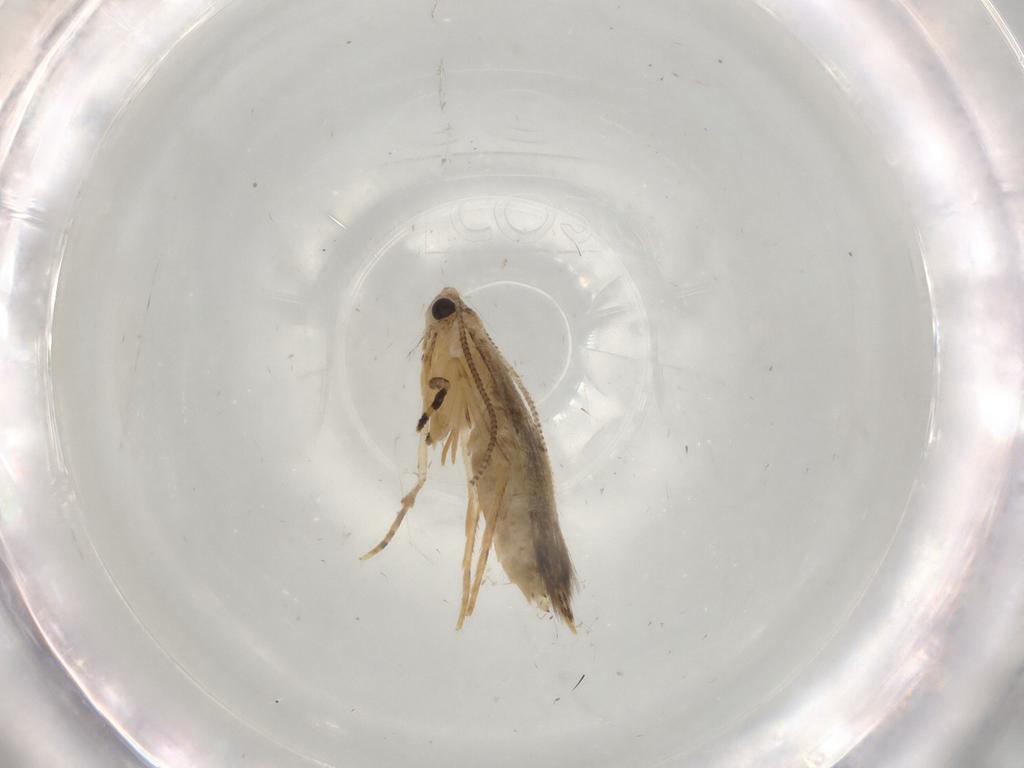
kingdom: Animalia
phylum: Arthropoda
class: Insecta
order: Lepidoptera
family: Tineidae
